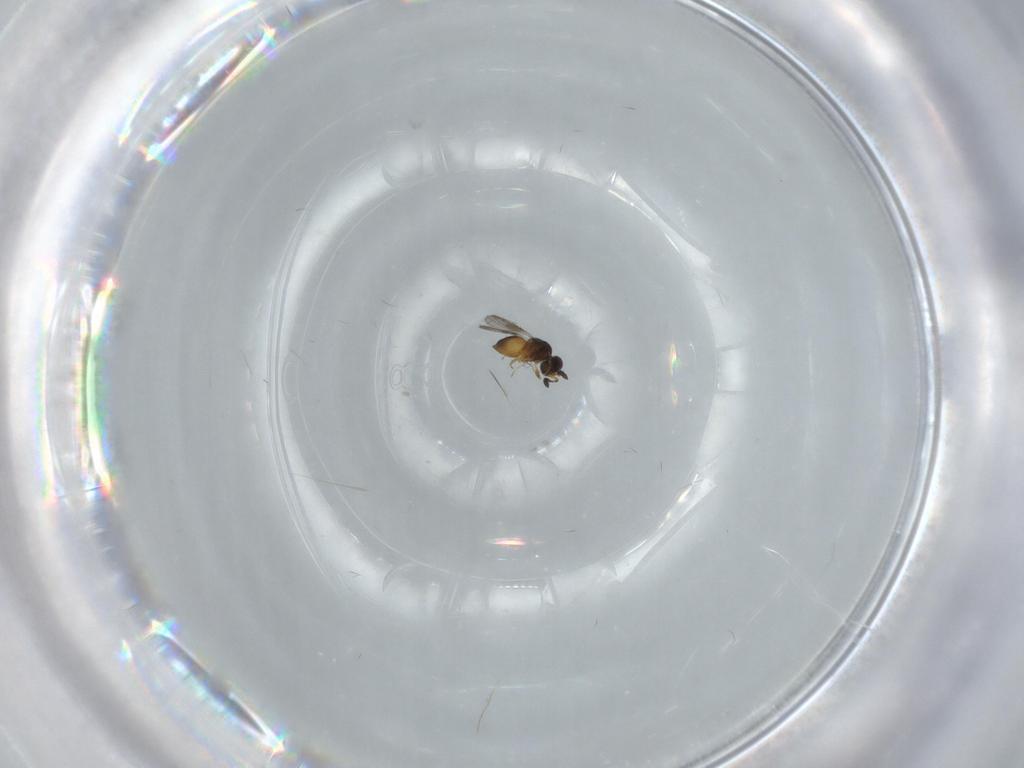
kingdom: Animalia
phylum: Arthropoda
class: Insecta
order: Hymenoptera
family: Ceraphronidae
